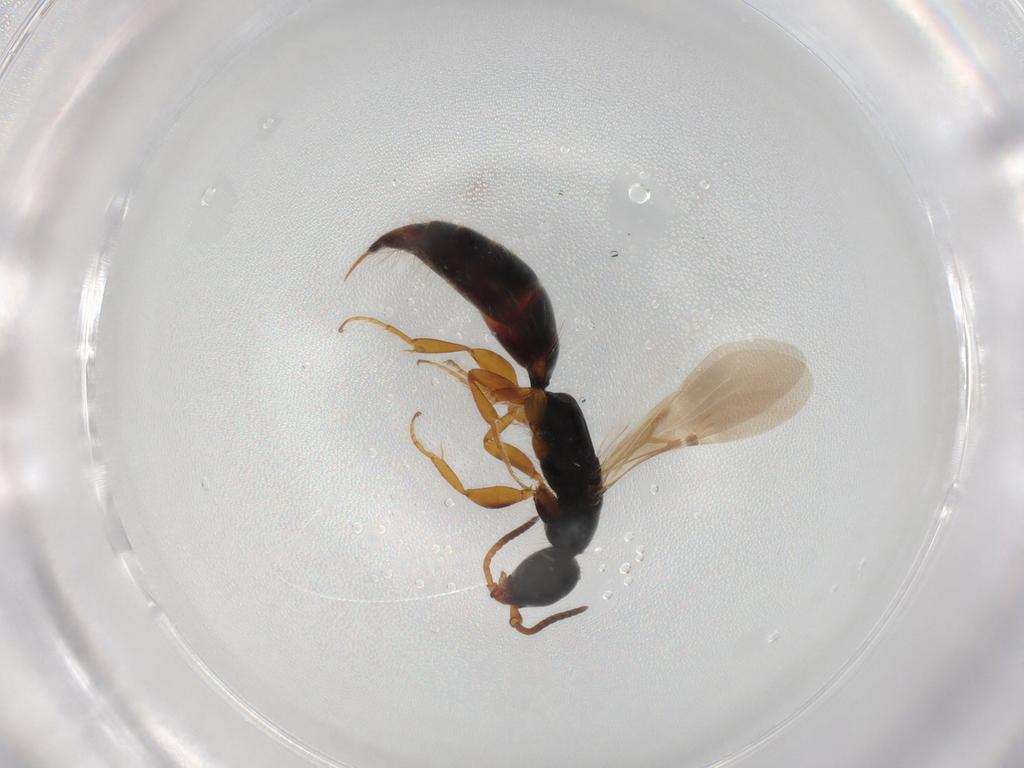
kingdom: Animalia
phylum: Arthropoda
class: Insecta
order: Hymenoptera
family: Bethylidae
